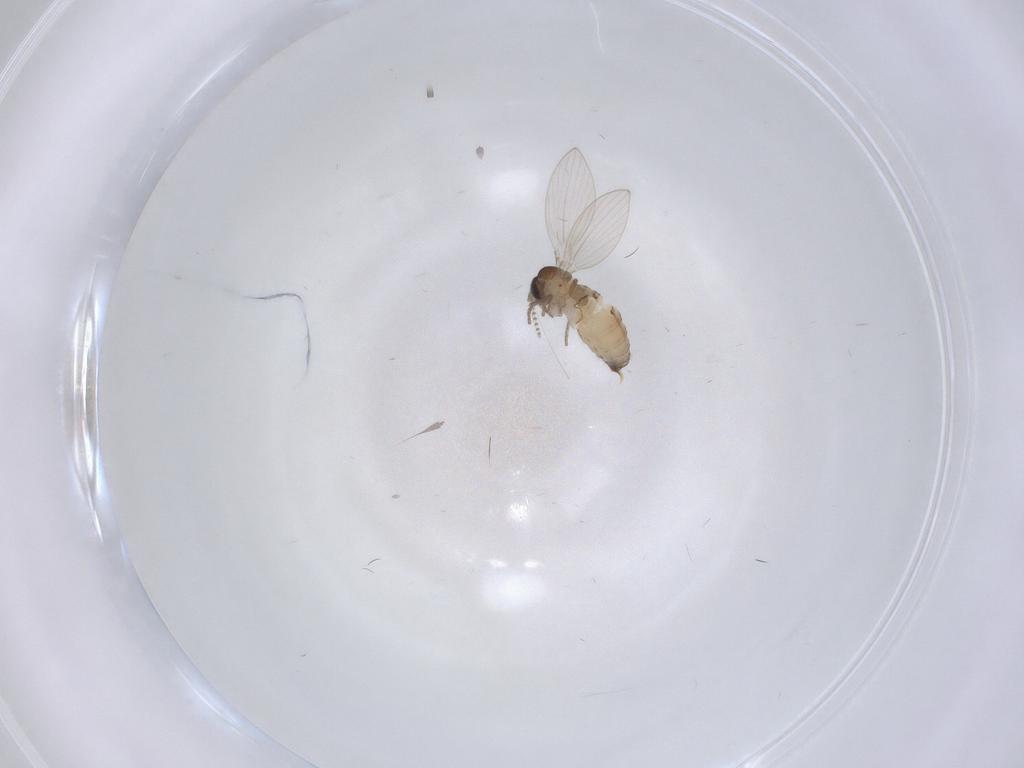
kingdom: Animalia
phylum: Arthropoda
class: Insecta
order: Diptera
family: Psychodidae
